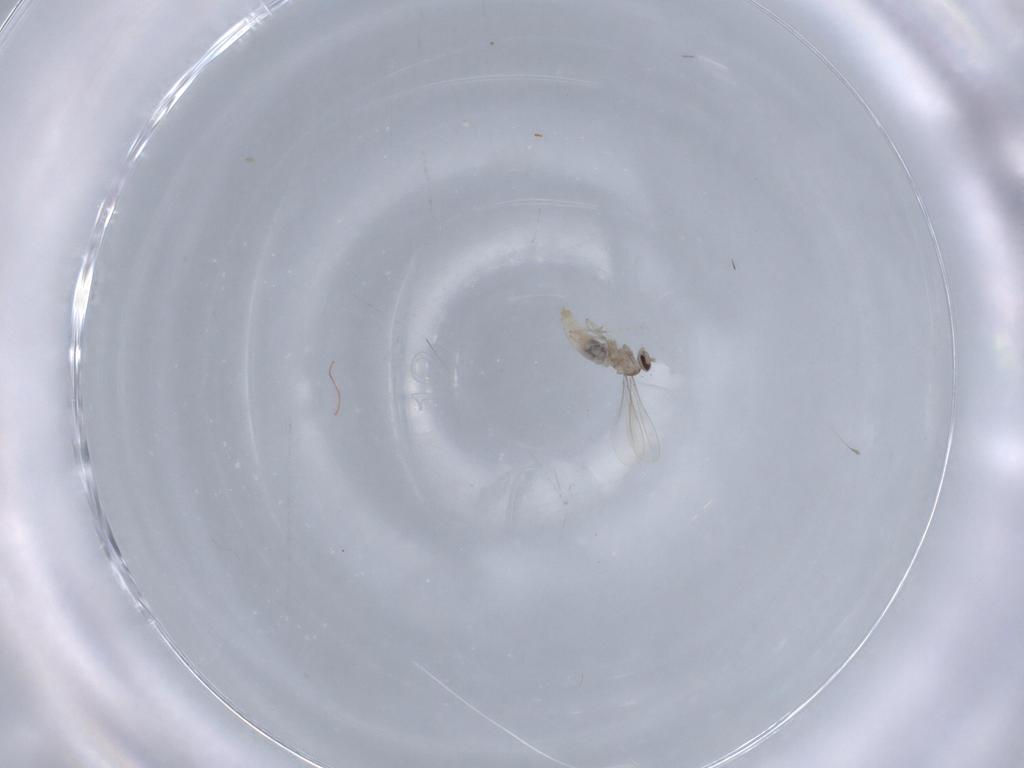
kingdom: Animalia
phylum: Arthropoda
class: Insecta
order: Diptera
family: Cecidomyiidae
